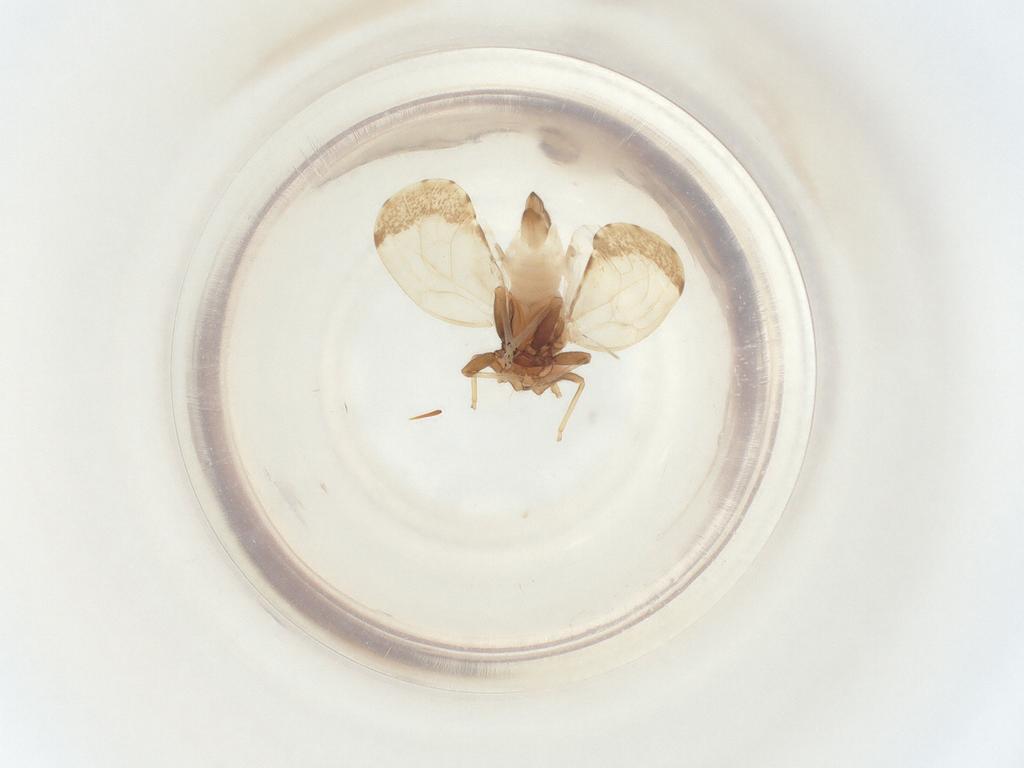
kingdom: Animalia
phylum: Arthropoda
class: Insecta
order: Hemiptera
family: Psyllidae
